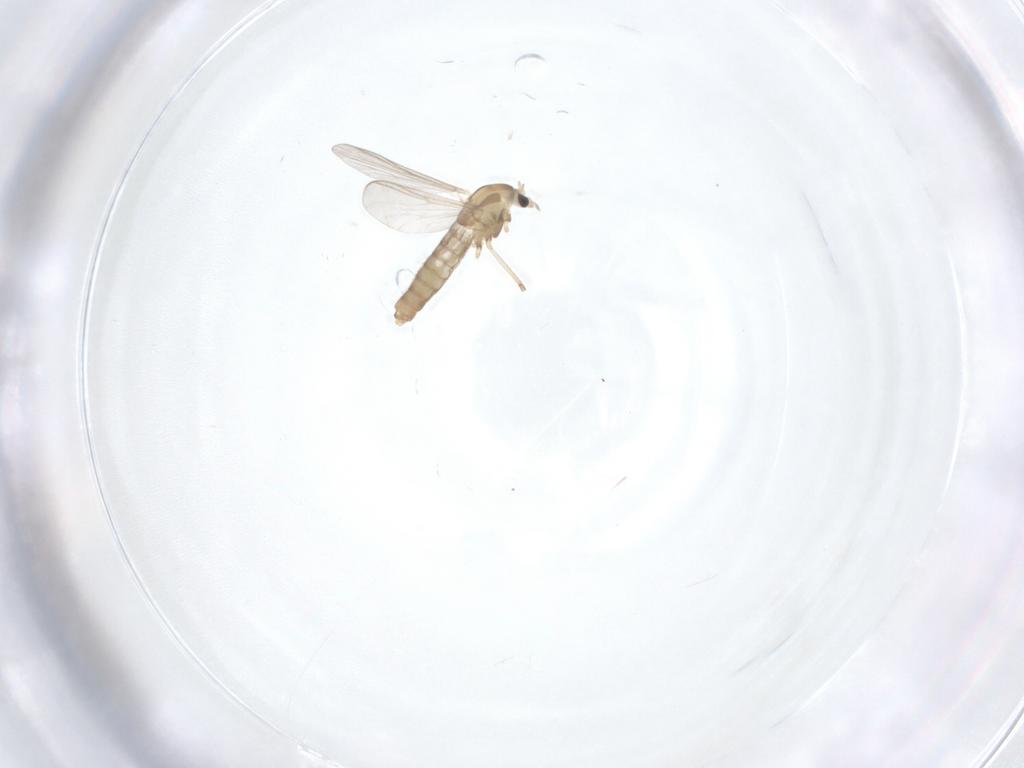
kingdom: Animalia
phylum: Arthropoda
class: Insecta
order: Diptera
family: Chironomidae
